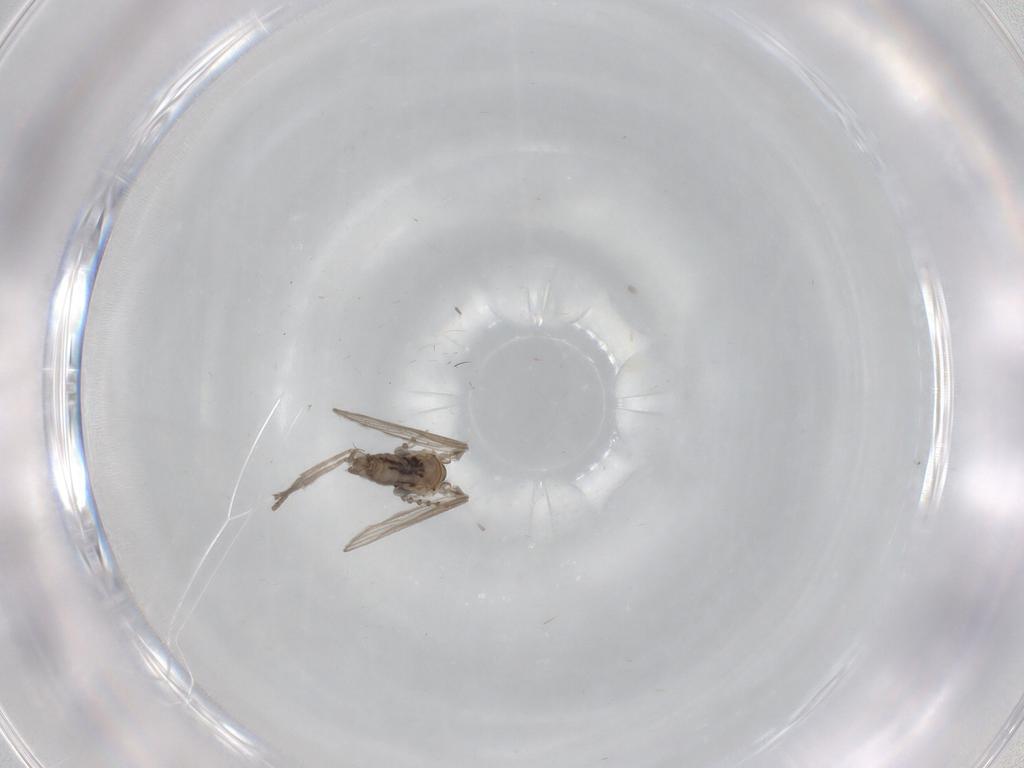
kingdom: Animalia
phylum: Arthropoda
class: Insecta
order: Diptera
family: Psychodidae
